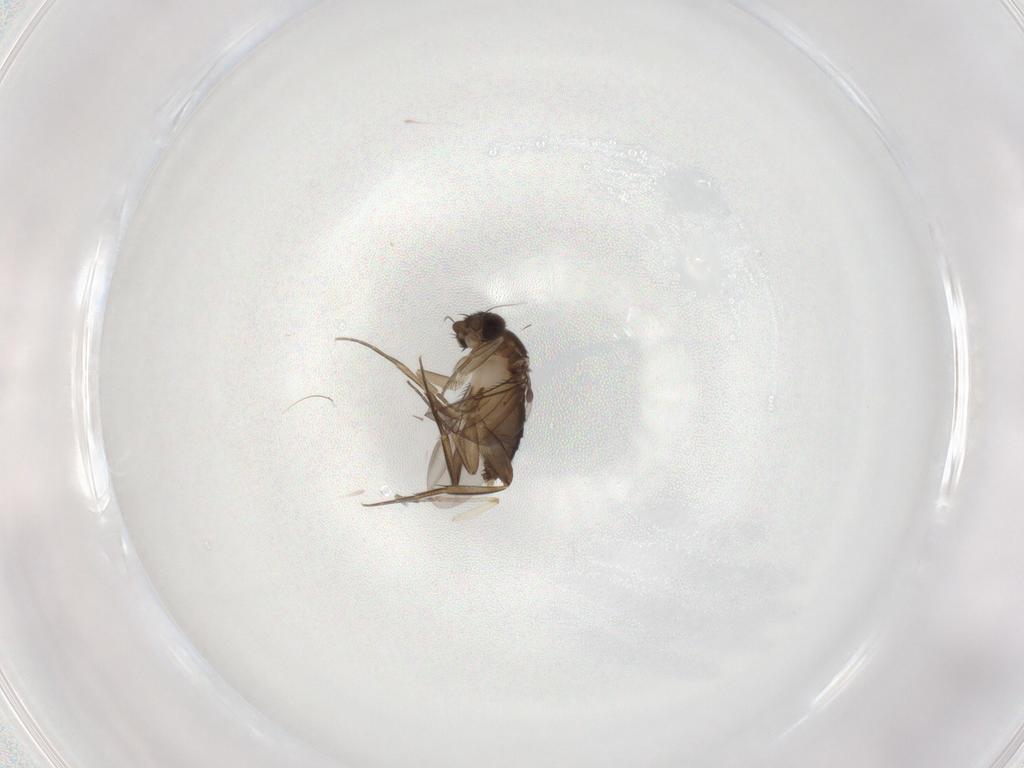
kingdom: Animalia
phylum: Arthropoda
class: Insecta
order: Diptera
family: Phoridae
